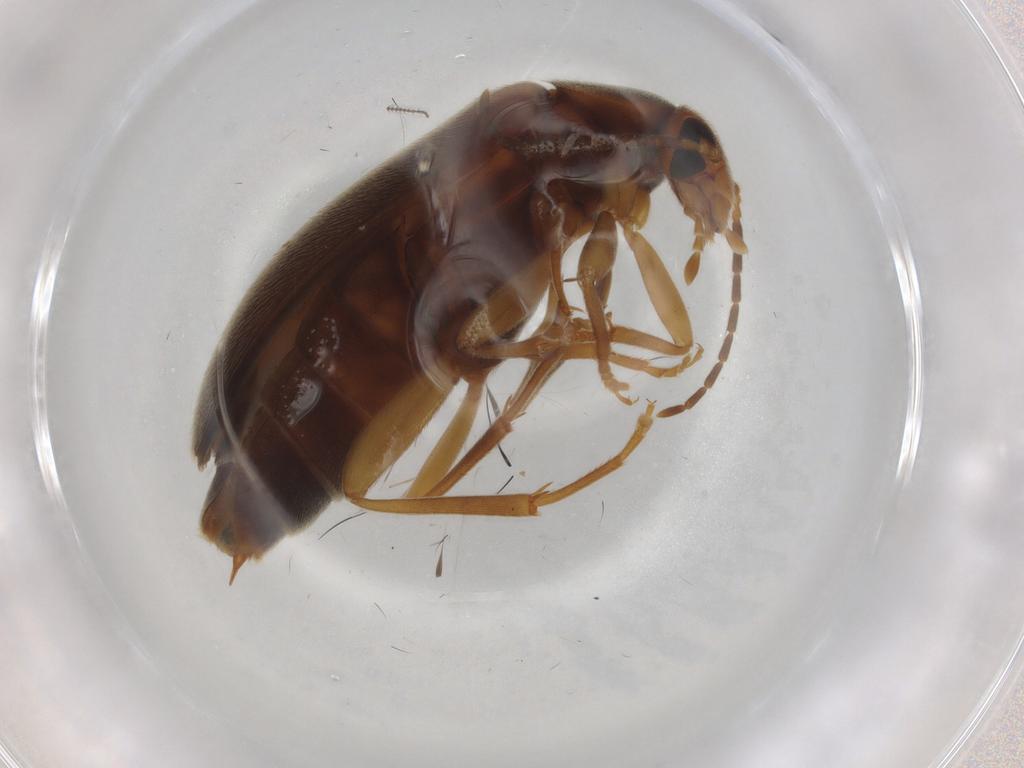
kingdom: Animalia
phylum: Arthropoda
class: Insecta
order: Coleoptera
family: Scraptiidae
